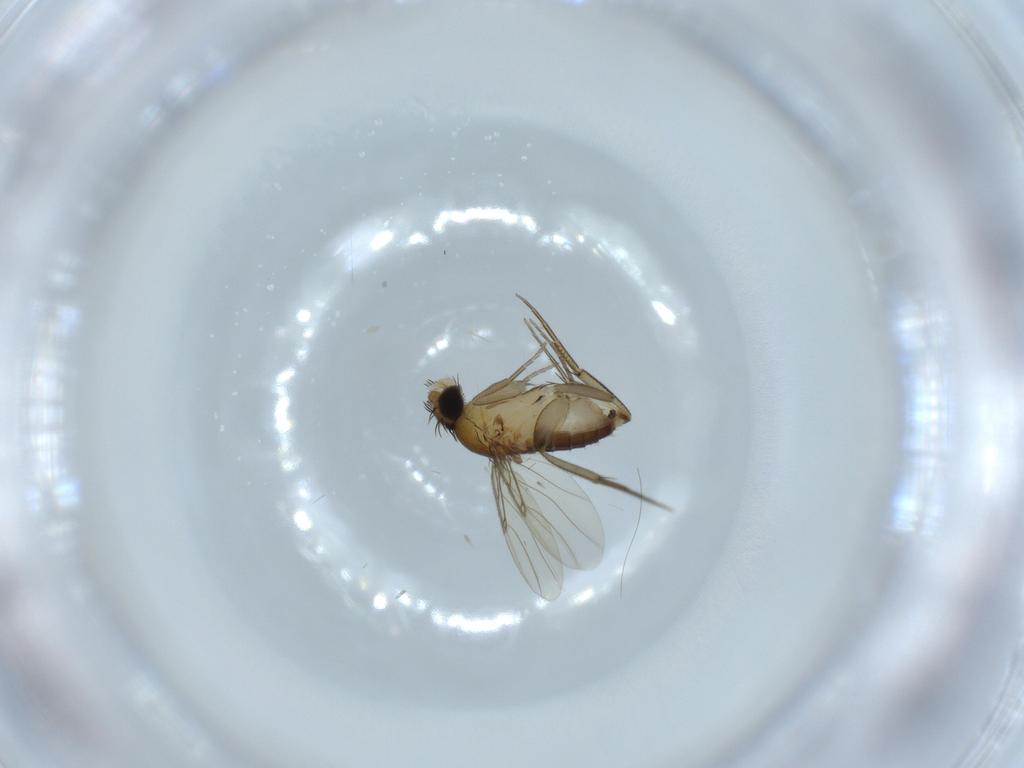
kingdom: Animalia
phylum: Arthropoda
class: Insecta
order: Diptera
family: Phoridae
